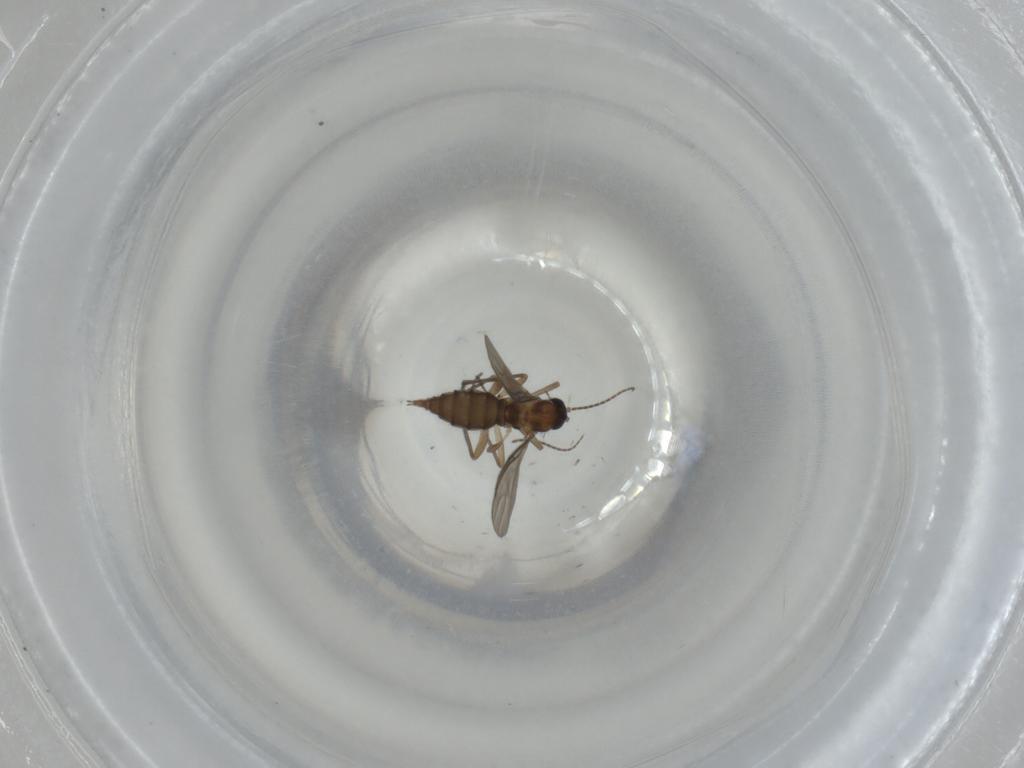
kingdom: Animalia
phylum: Arthropoda
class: Insecta
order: Diptera
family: Sciaridae
